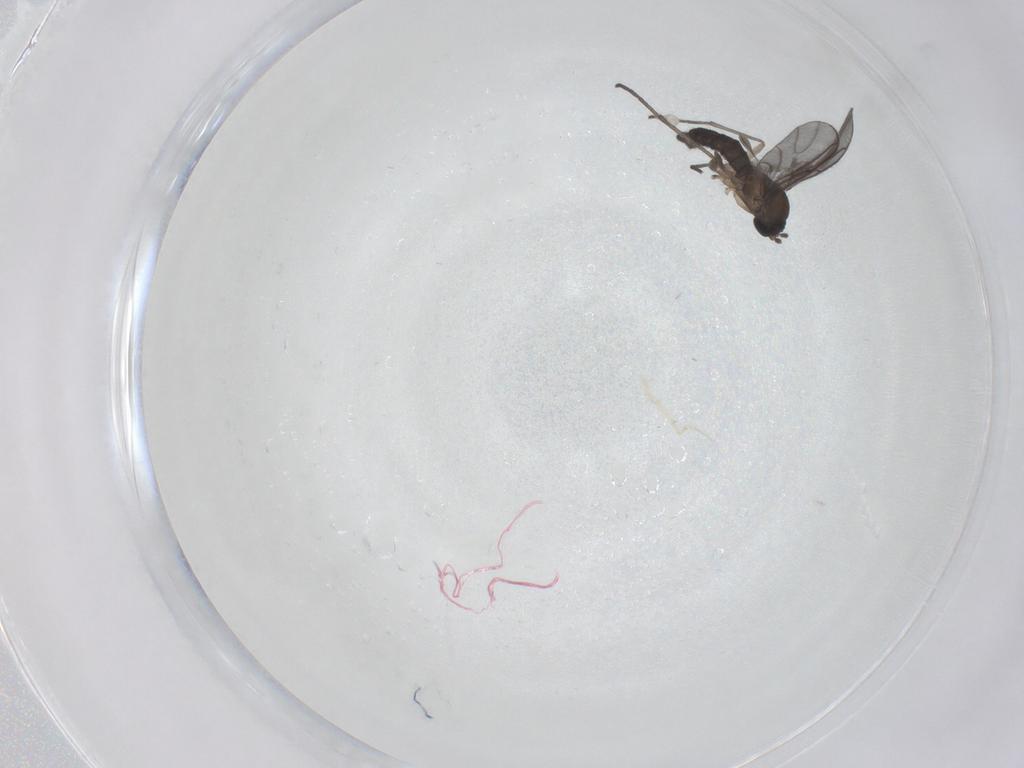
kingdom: Animalia
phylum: Arthropoda
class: Insecta
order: Diptera
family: Sciaridae
